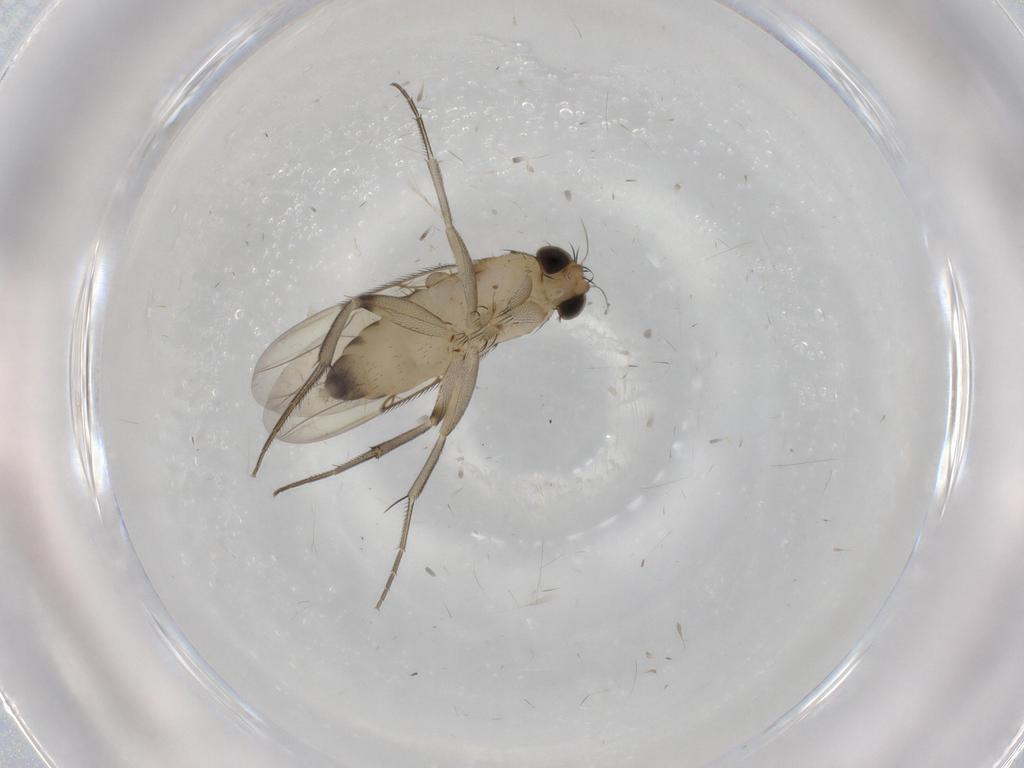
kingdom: Animalia
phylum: Arthropoda
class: Insecta
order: Diptera
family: Phoridae
